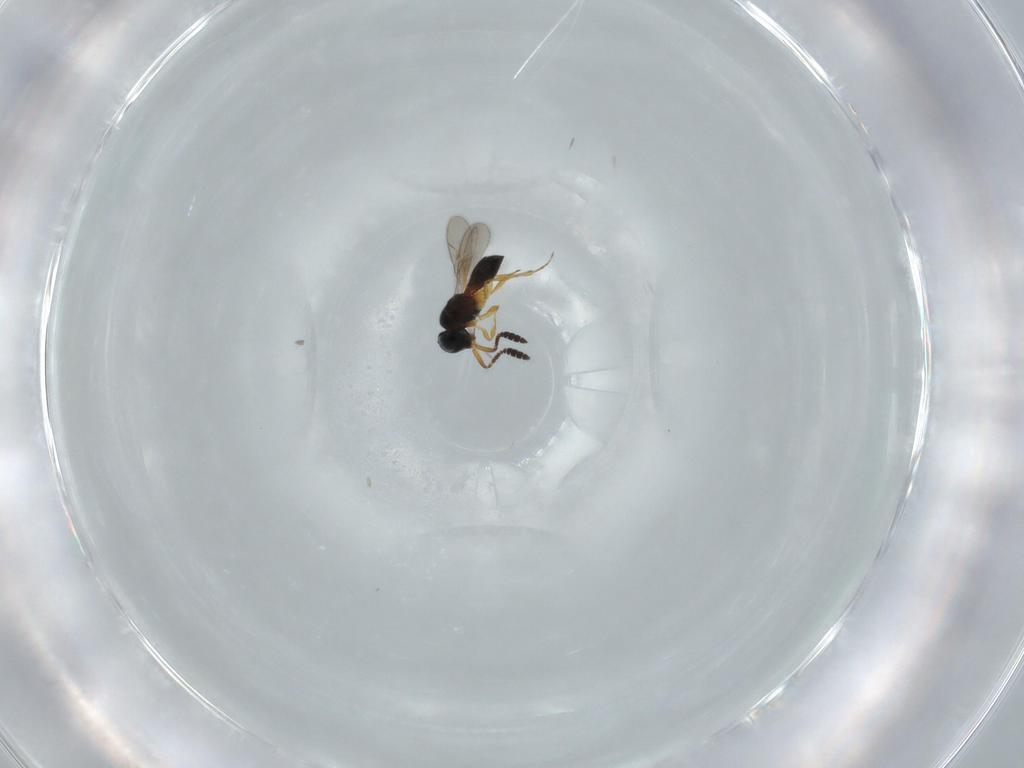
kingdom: Animalia
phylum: Arthropoda
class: Insecta
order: Hymenoptera
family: Scelionidae
